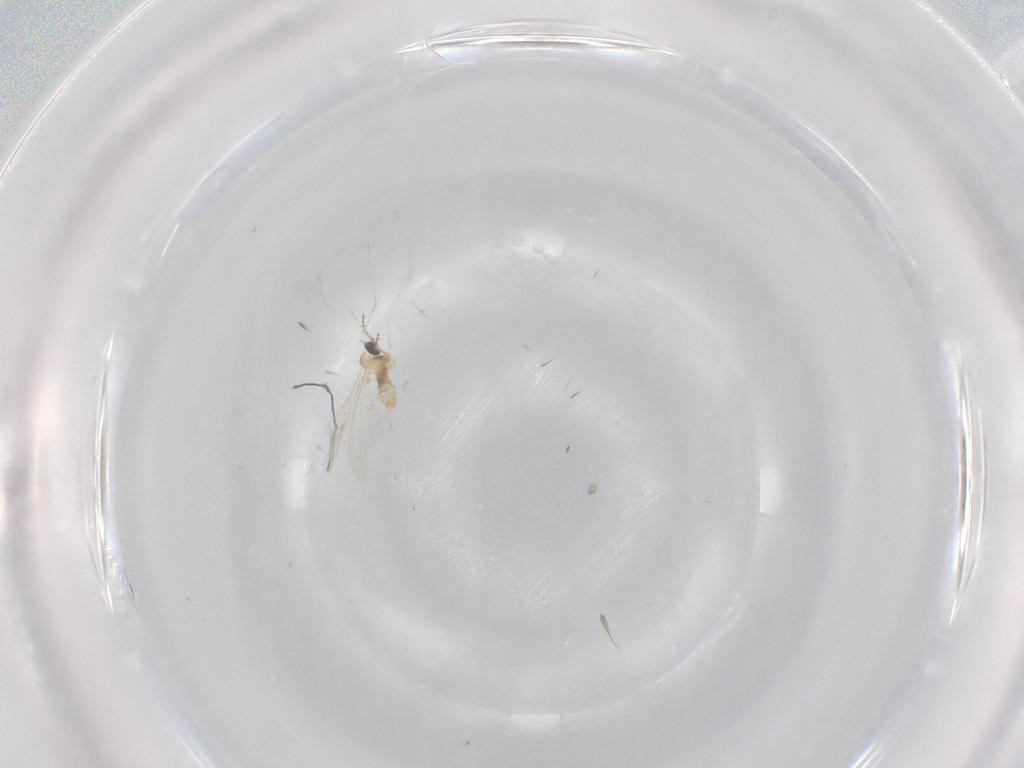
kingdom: Animalia
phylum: Arthropoda
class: Insecta
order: Diptera
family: Cecidomyiidae
